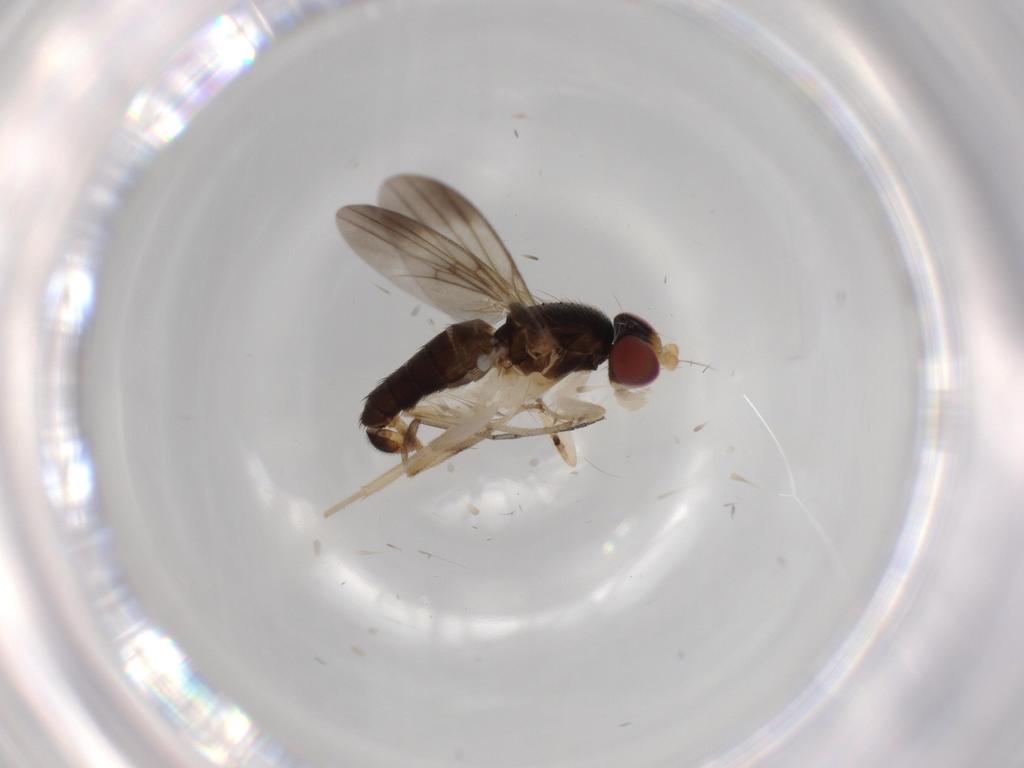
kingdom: Animalia
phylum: Arthropoda
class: Insecta
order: Diptera
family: Clusiidae
